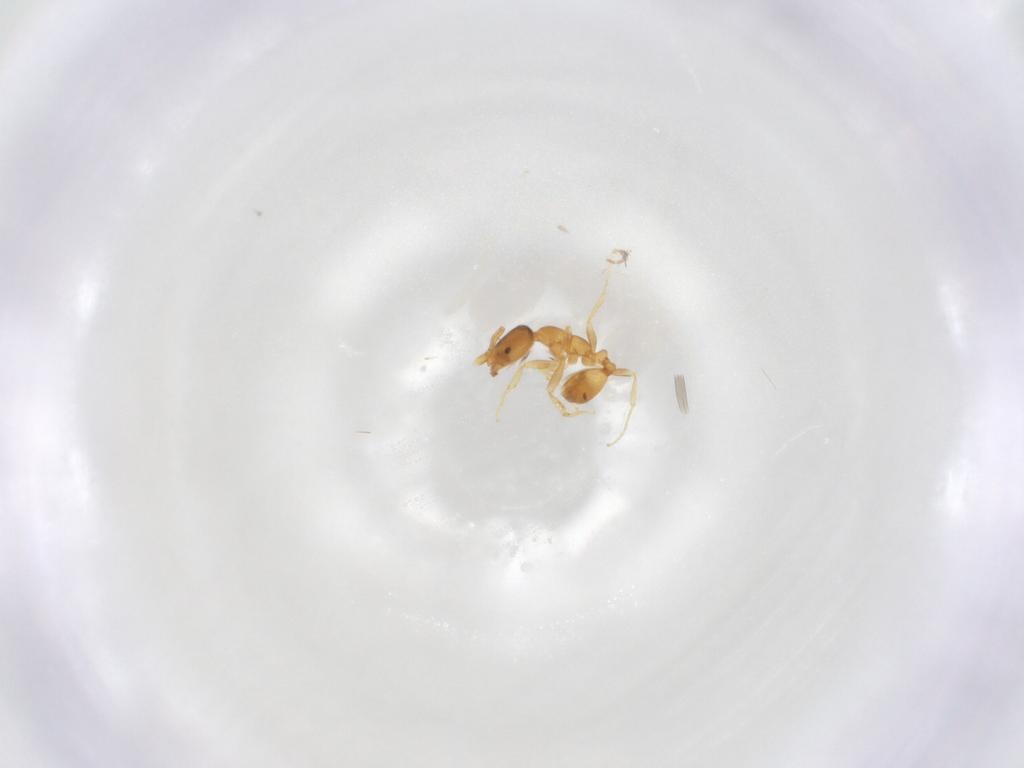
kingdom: Animalia
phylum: Arthropoda
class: Insecta
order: Hymenoptera
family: Formicidae
